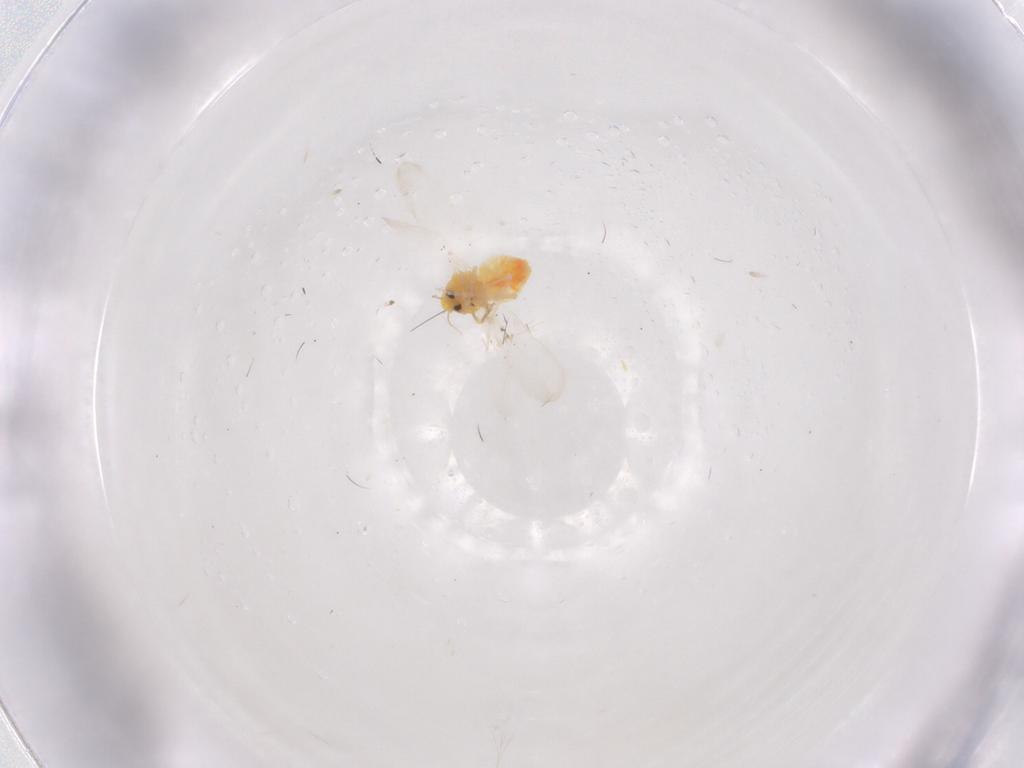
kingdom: Animalia
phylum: Arthropoda
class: Insecta
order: Hemiptera
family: Aleyrodidae
